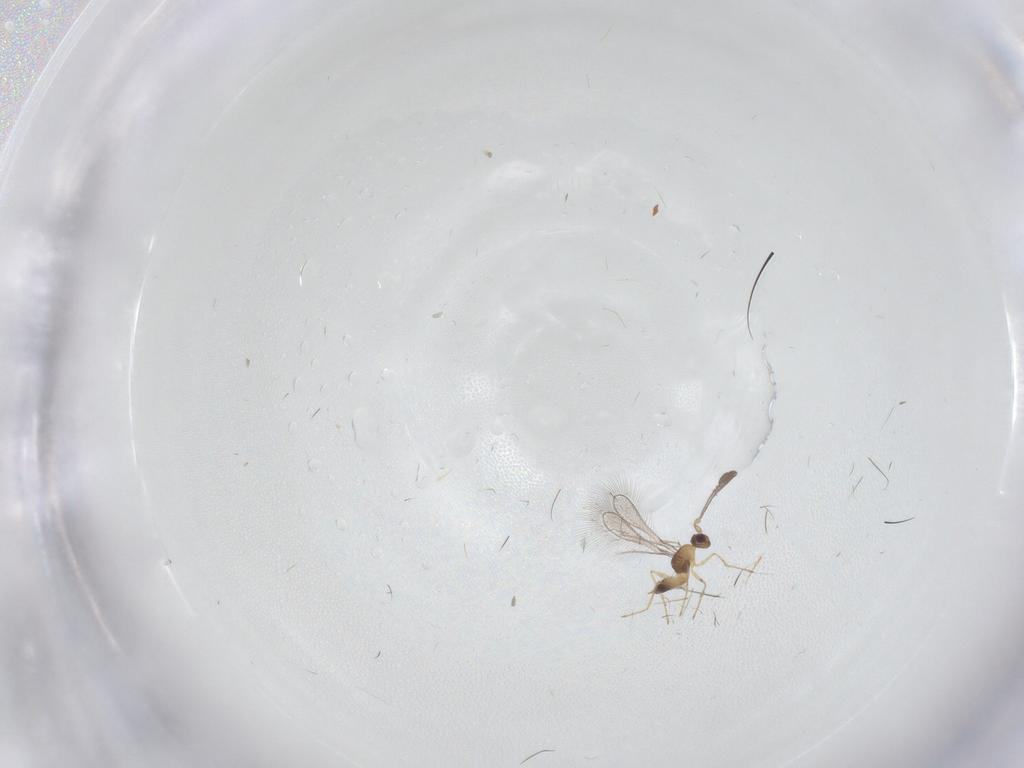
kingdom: Animalia
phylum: Arthropoda
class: Insecta
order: Hymenoptera
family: Mymaridae
